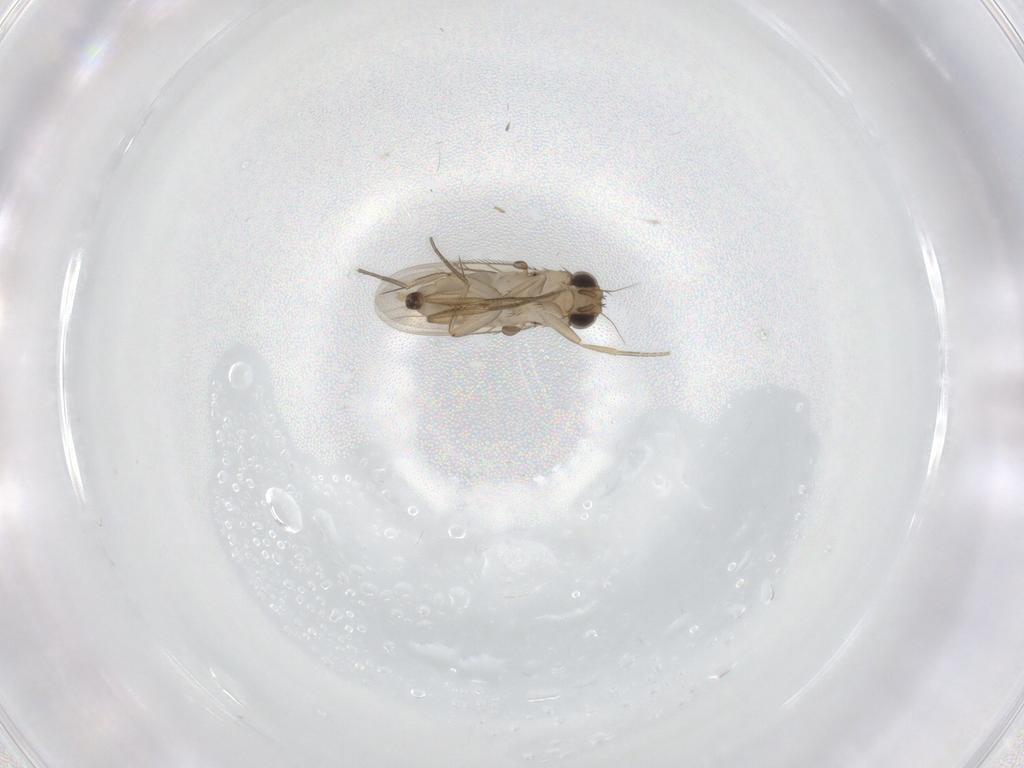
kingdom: Animalia
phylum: Arthropoda
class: Insecta
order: Diptera
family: Phoridae
